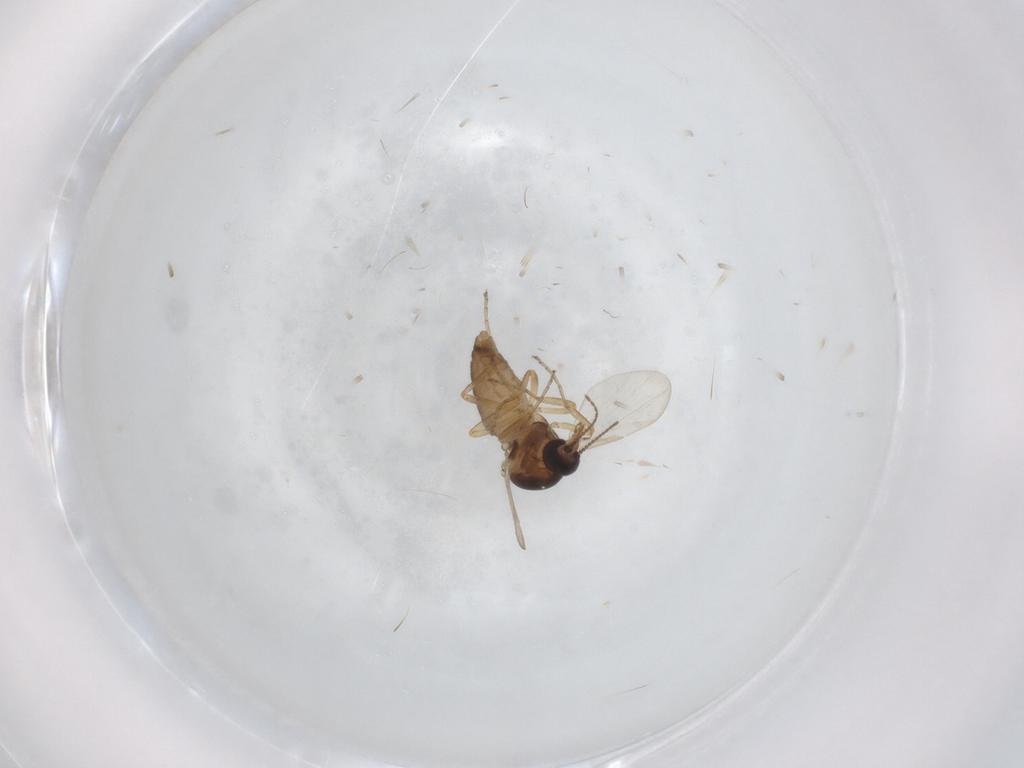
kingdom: Animalia
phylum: Arthropoda
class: Insecta
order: Diptera
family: Ceratopogonidae
